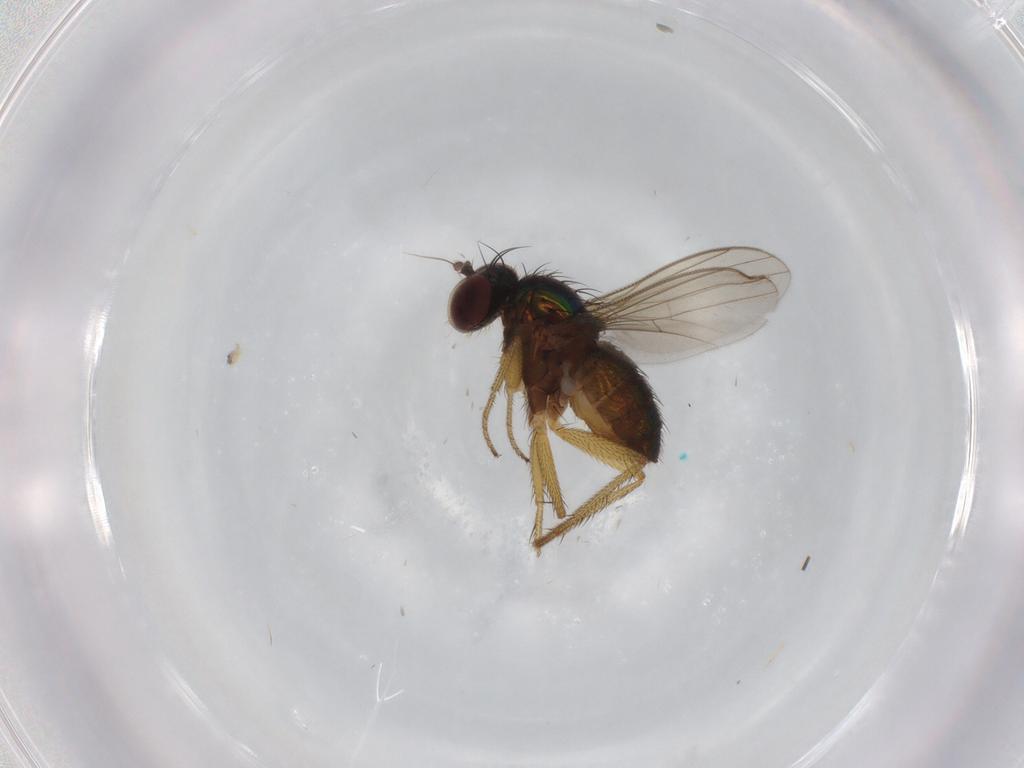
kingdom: Animalia
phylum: Arthropoda
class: Insecta
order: Diptera
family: Dolichopodidae
